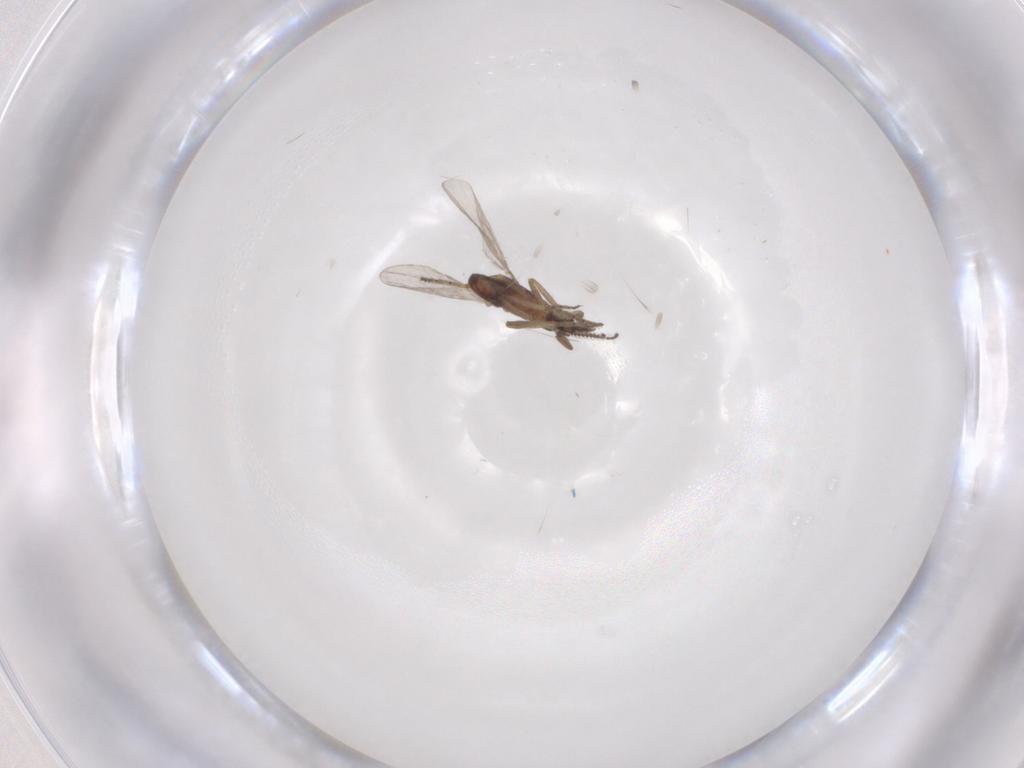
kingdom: Animalia
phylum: Arthropoda
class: Insecta
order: Diptera
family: Ceratopogonidae
